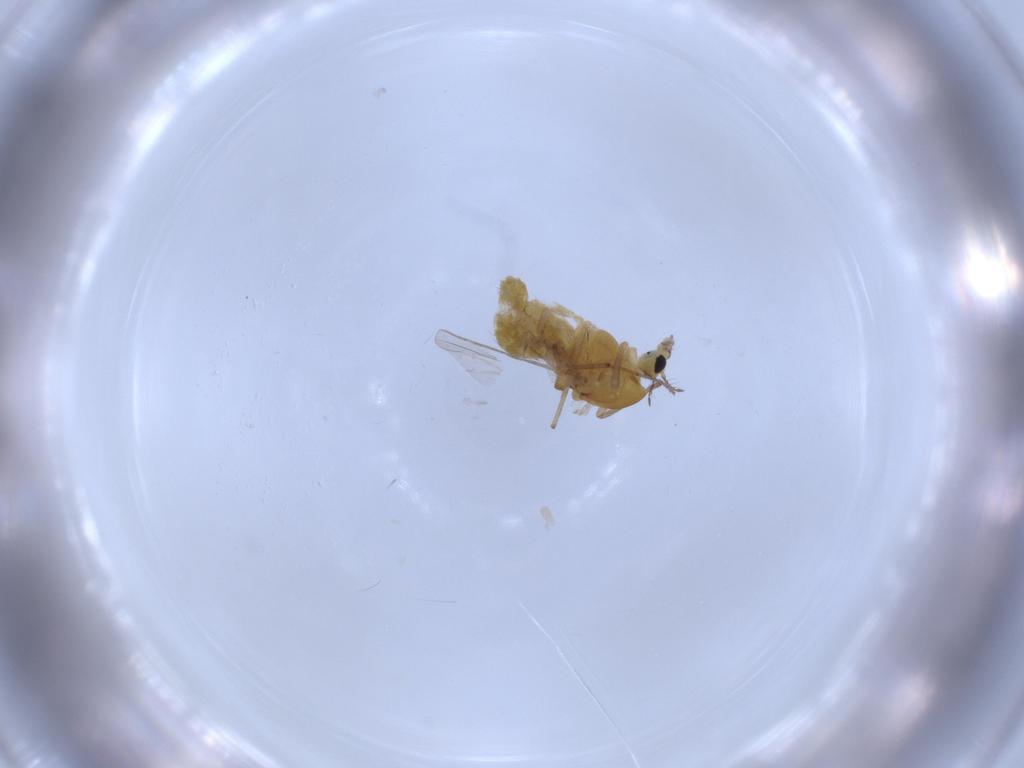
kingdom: Animalia
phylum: Arthropoda
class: Insecta
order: Diptera
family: Chironomidae
